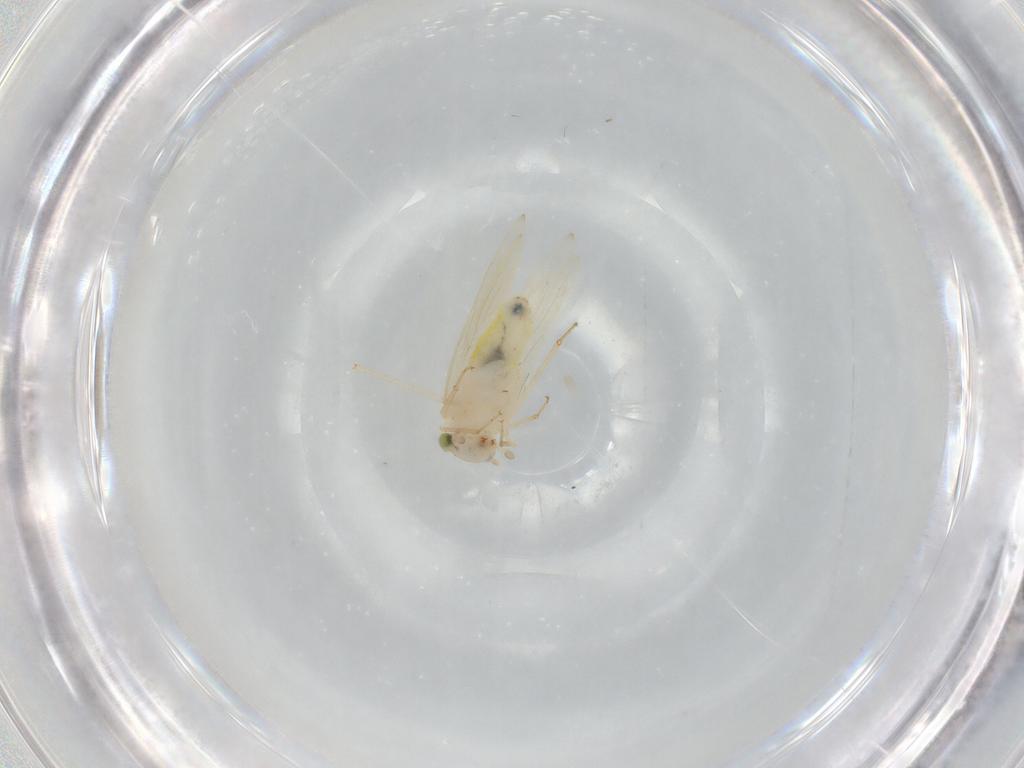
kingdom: Animalia
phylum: Arthropoda
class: Insecta
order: Psocodea
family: Lepidopsocidae
